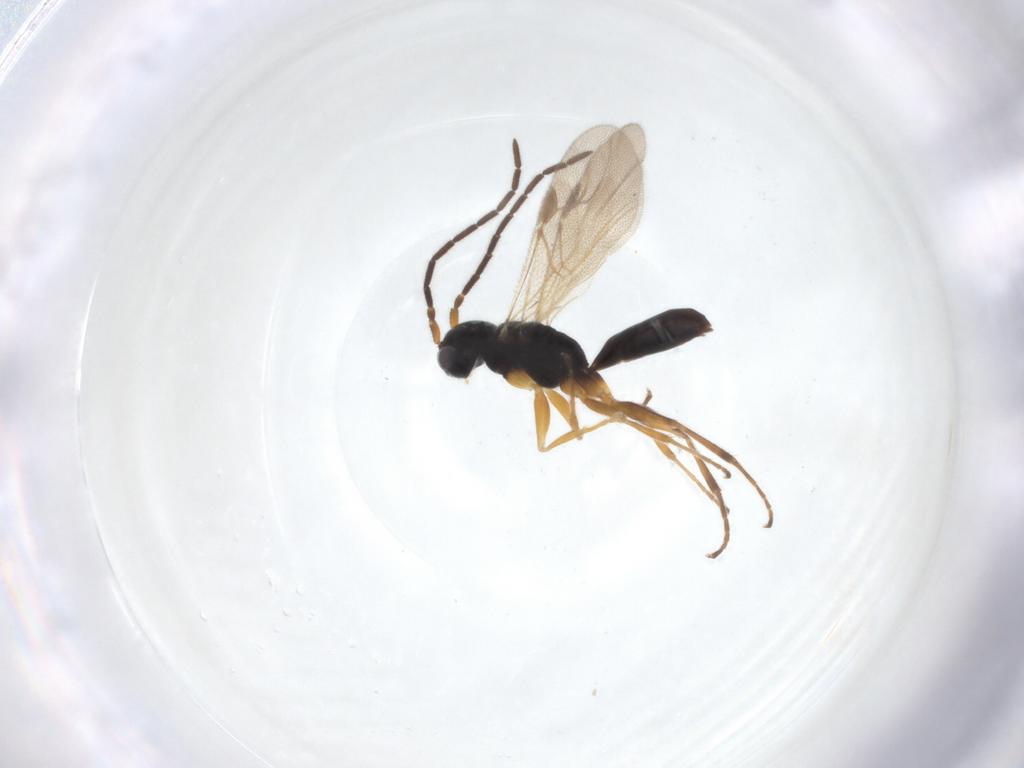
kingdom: Animalia
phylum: Arthropoda
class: Insecta
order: Hymenoptera
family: Dryinidae
